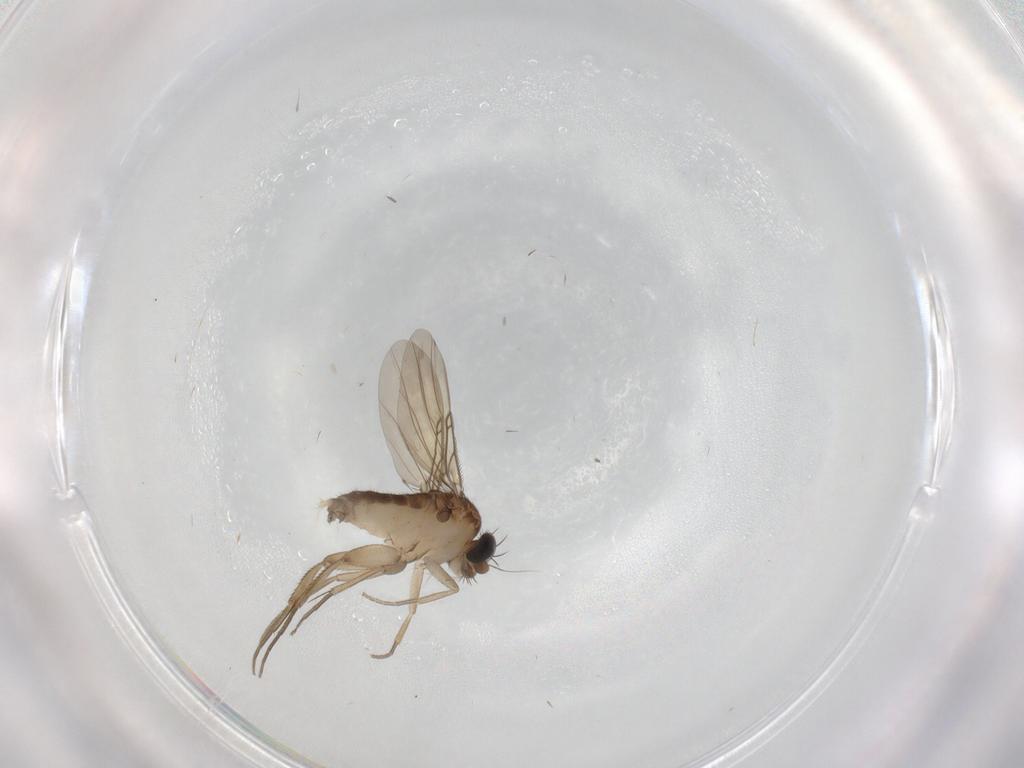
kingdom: Animalia
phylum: Arthropoda
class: Insecta
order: Diptera
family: Phoridae
